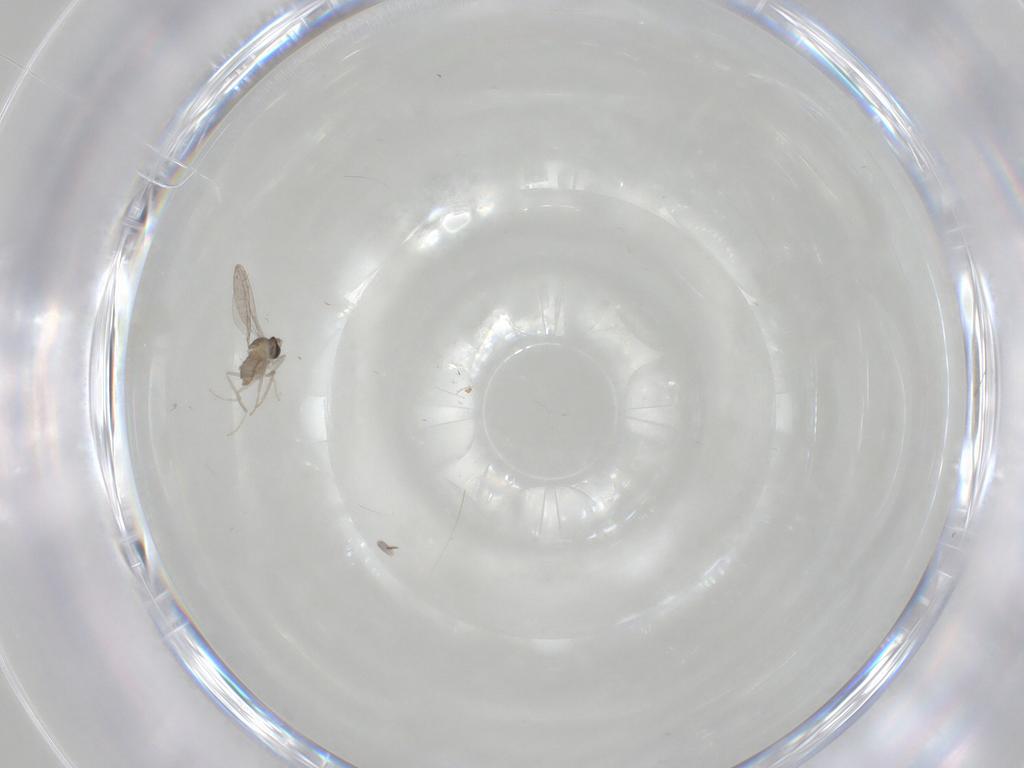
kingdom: Animalia
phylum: Arthropoda
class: Insecta
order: Diptera
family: Cecidomyiidae
